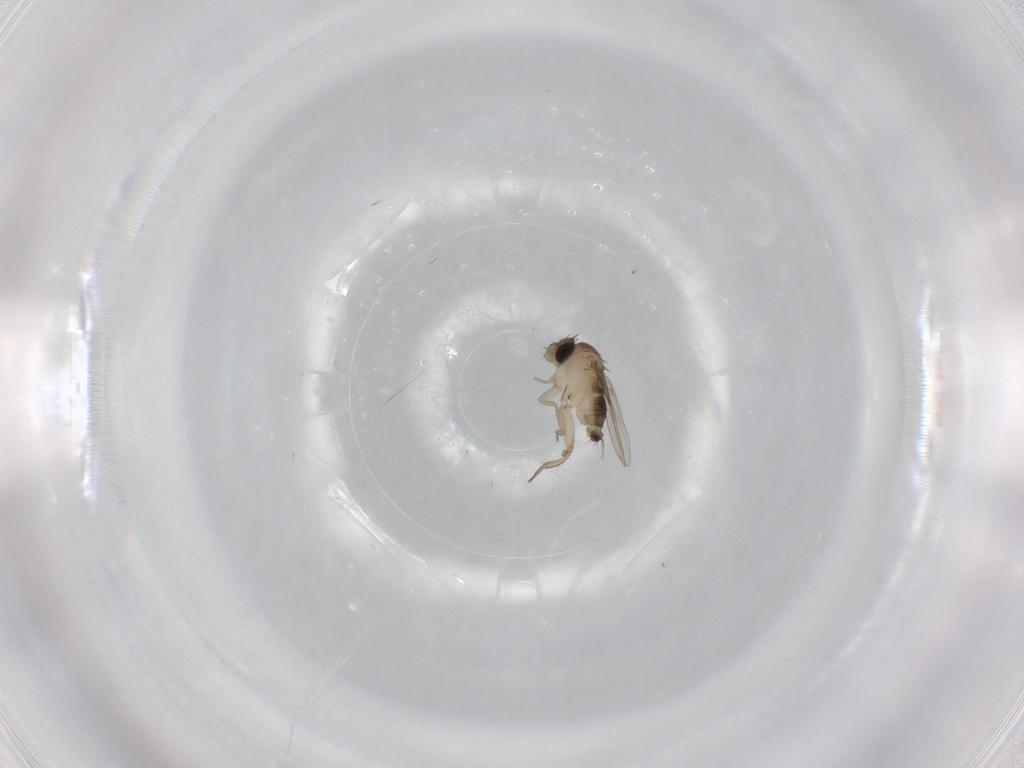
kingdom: Animalia
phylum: Arthropoda
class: Insecta
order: Diptera
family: Phoridae
